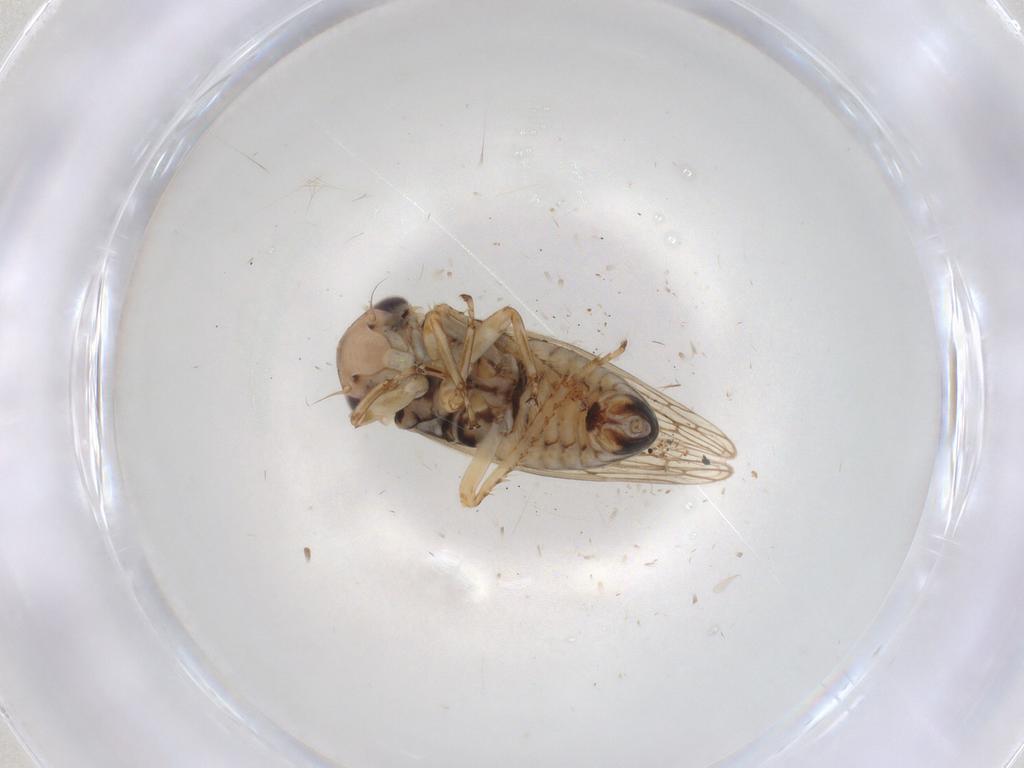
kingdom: Animalia
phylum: Arthropoda
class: Insecta
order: Hemiptera
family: Cicadellidae
